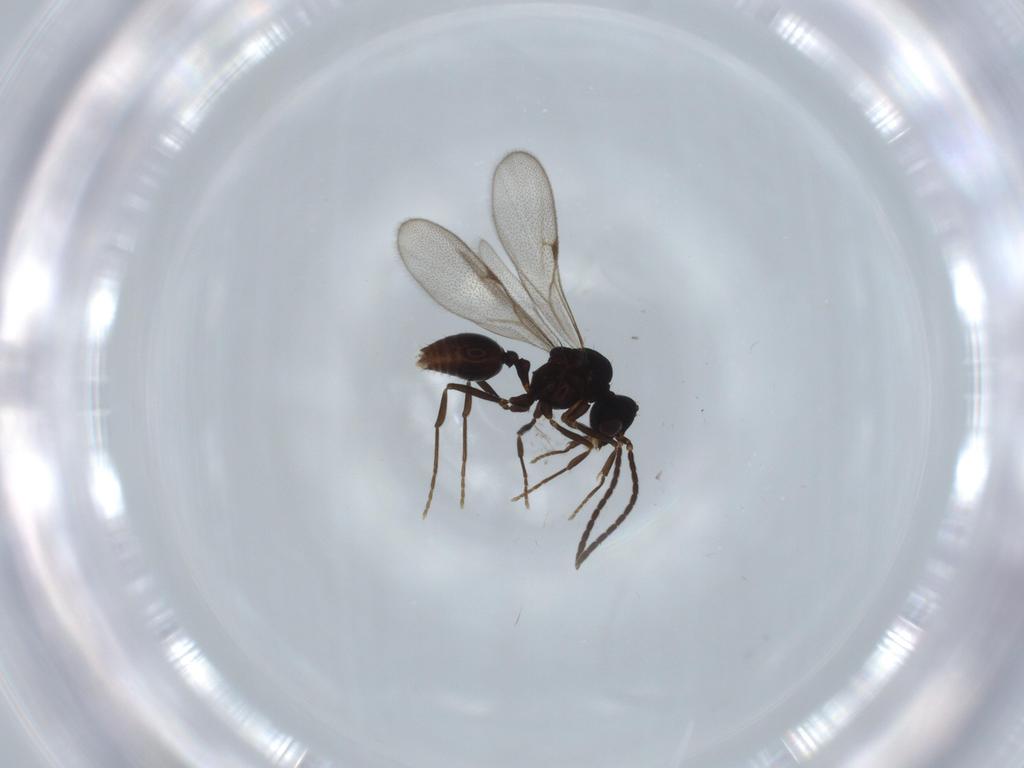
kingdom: Animalia
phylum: Arthropoda
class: Insecta
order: Hymenoptera
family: Formicidae
